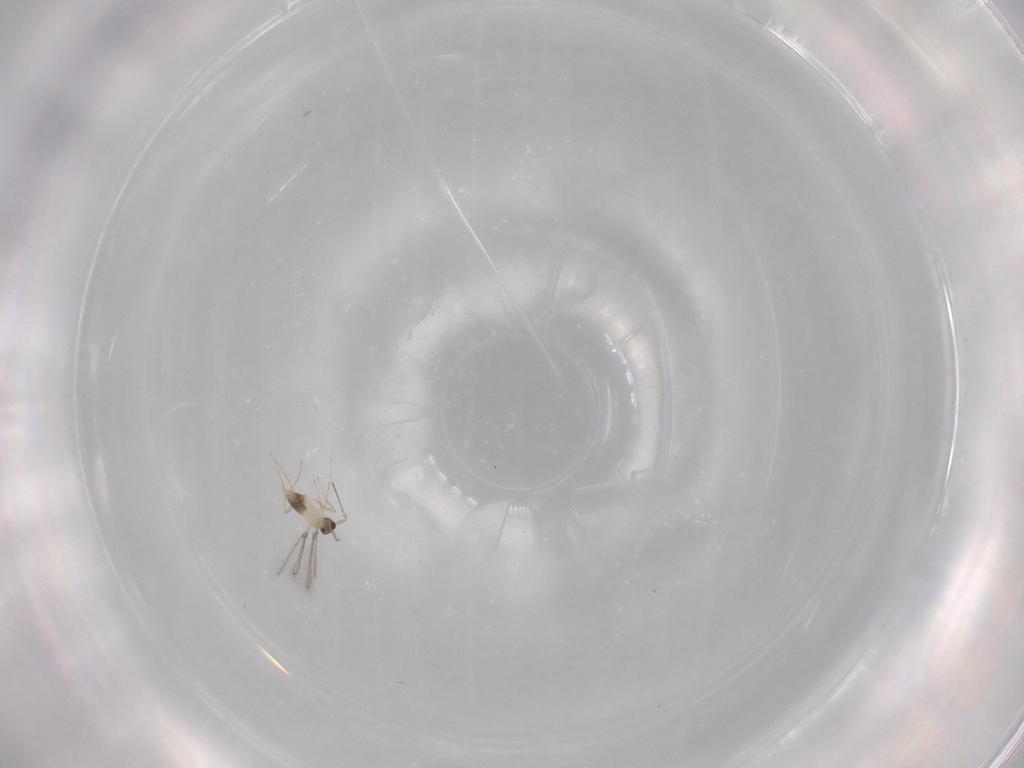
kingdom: Animalia
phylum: Arthropoda
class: Insecta
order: Hymenoptera
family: Mymaridae
